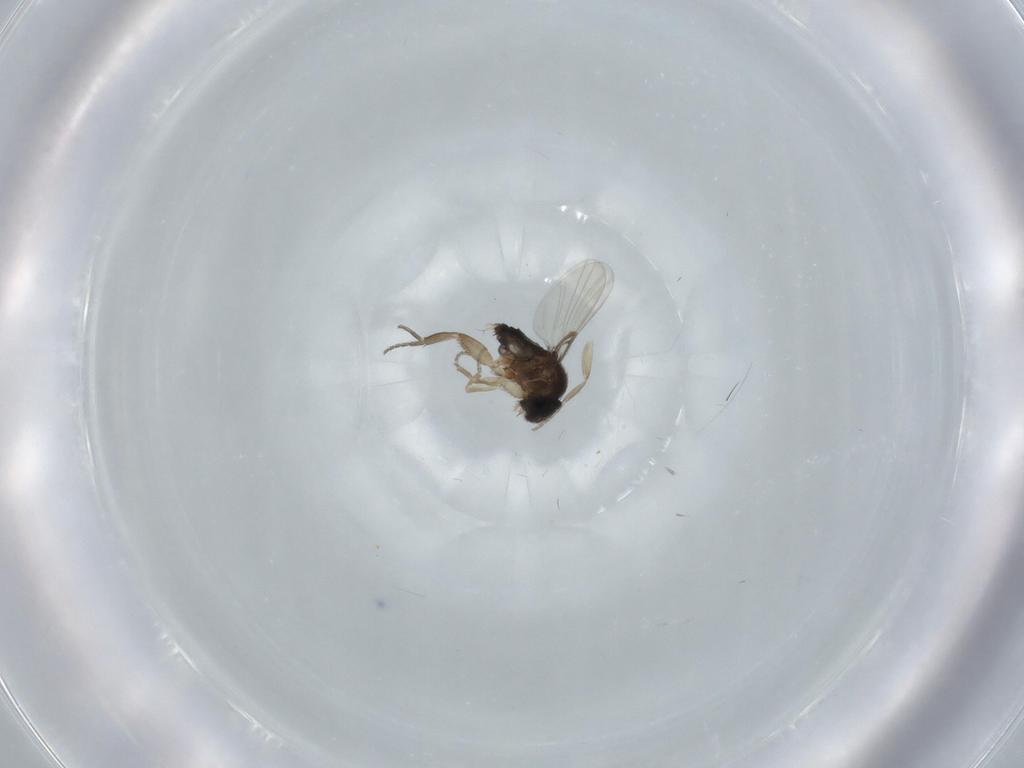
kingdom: Animalia
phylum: Arthropoda
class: Insecta
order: Diptera
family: Phoridae
